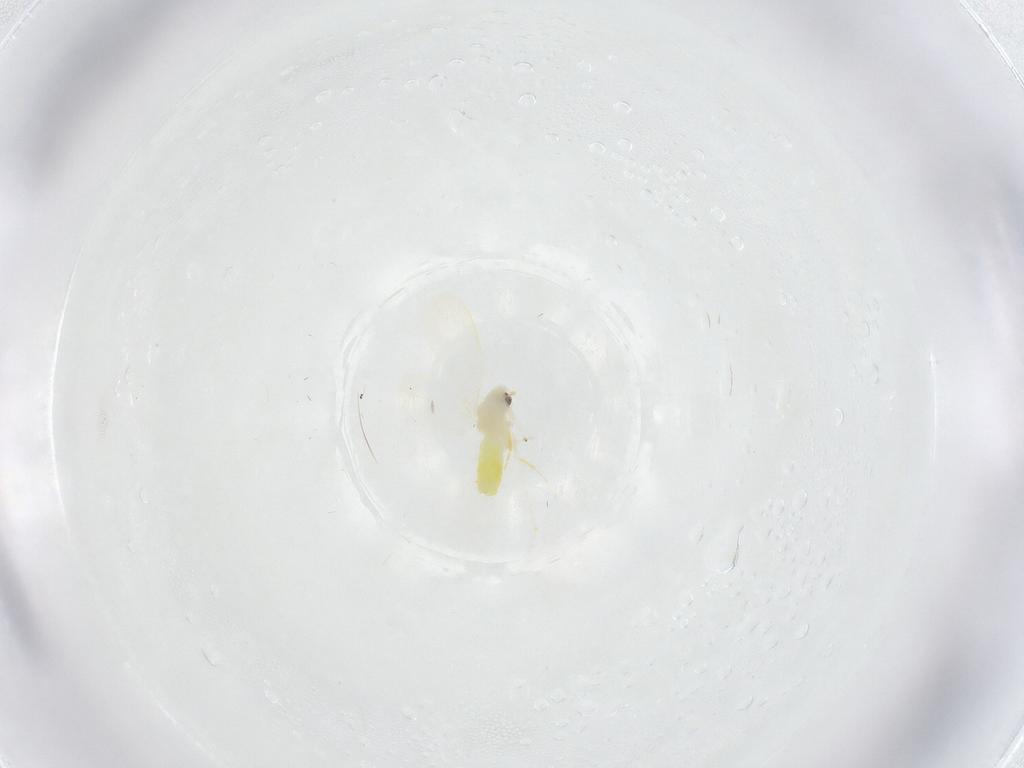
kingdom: Animalia
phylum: Arthropoda
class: Insecta
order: Hemiptera
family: Aleyrodidae
